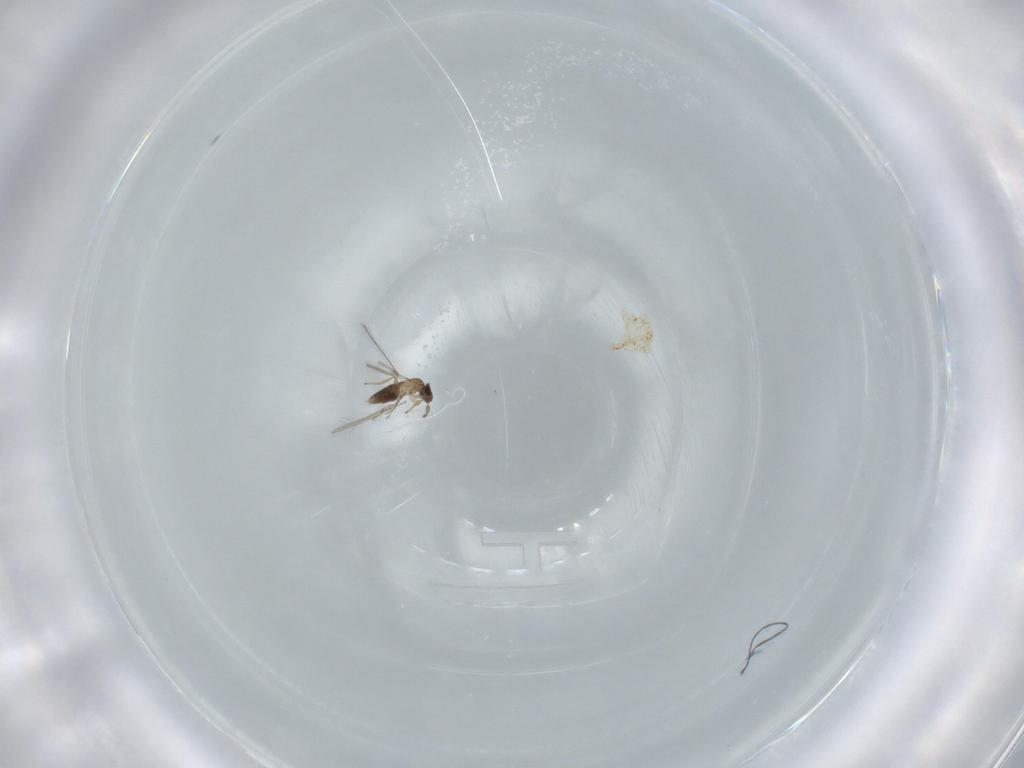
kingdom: Animalia
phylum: Arthropoda
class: Insecta
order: Hymenoptera
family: Mymaridae
